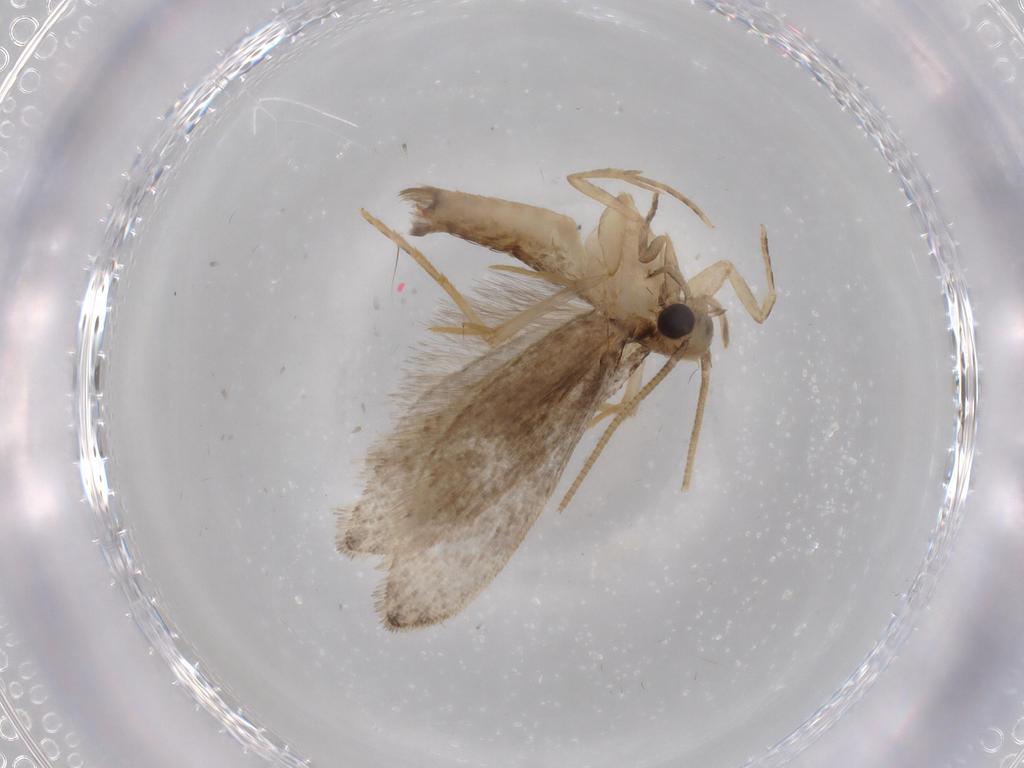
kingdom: Animalia
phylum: Arthropoda
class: Insecta
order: Lepidoptera
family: Tineidae
